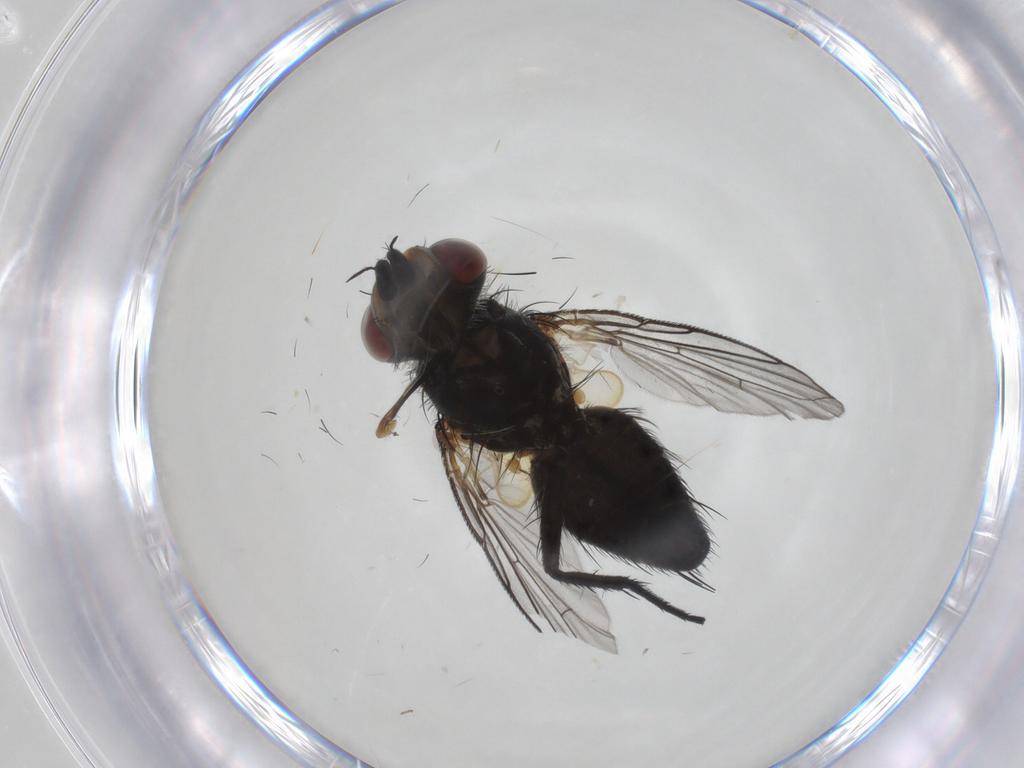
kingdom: Animalia
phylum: Arthropoda
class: Insecta
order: Diptera
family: Tachinidae
